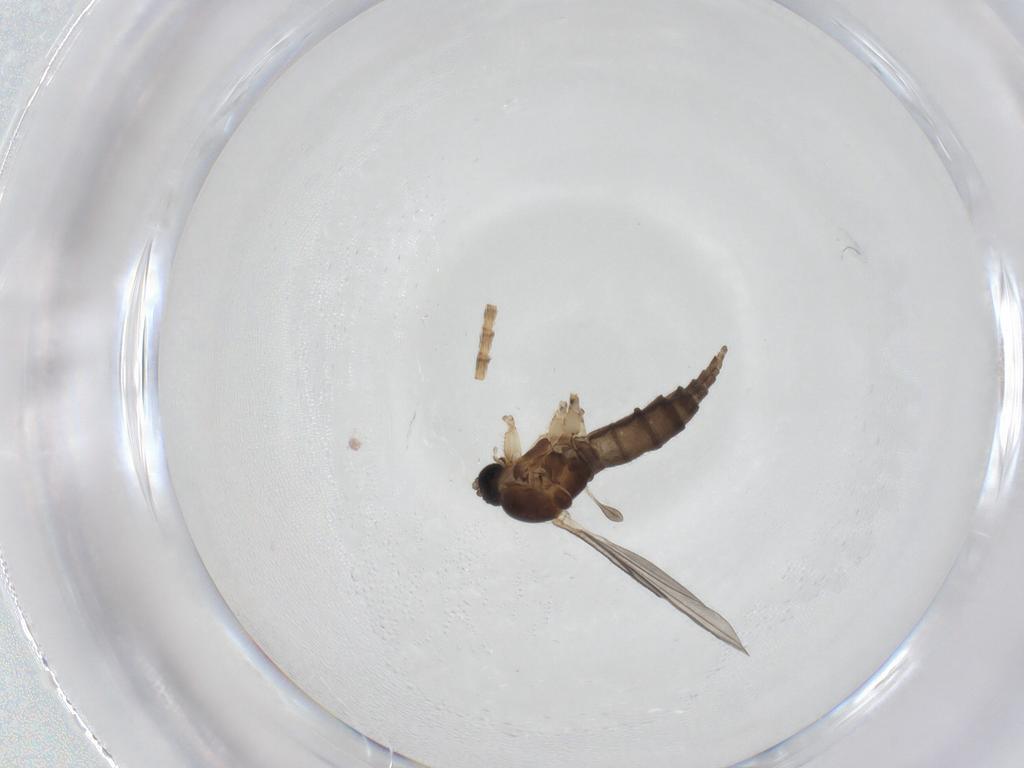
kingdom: Animalia
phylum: Arthropoda
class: Insecta
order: Diptera
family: Sciaridae
